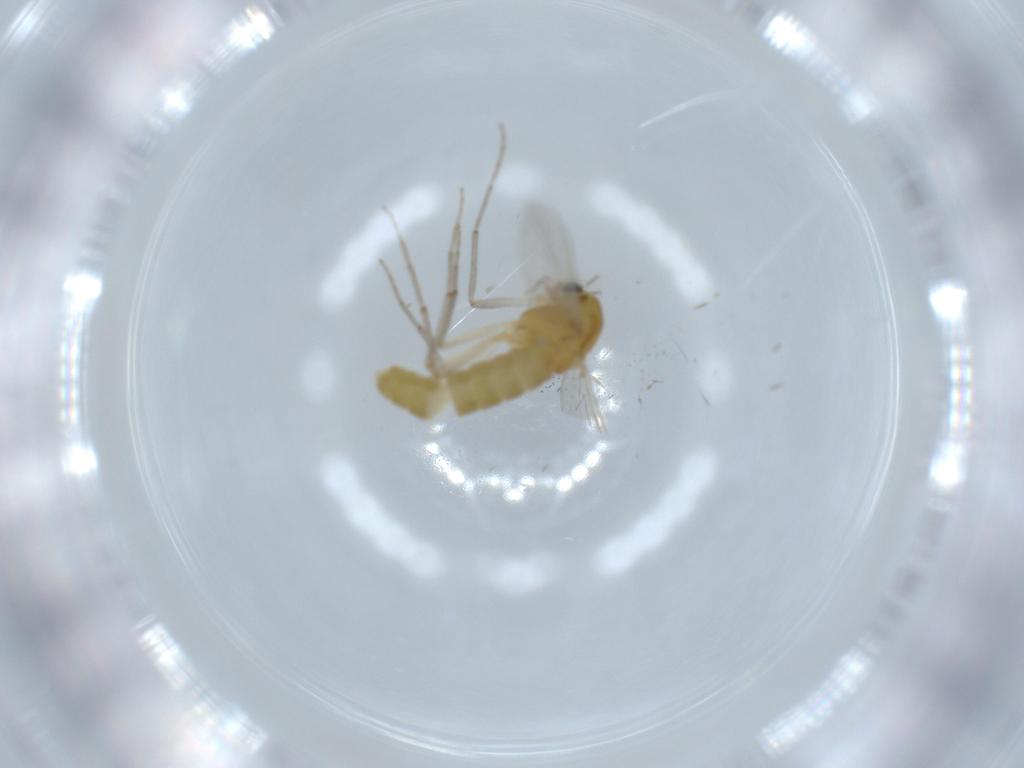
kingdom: Animalia
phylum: Arthropoda
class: Insecta
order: Diptera
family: Chironomidae
